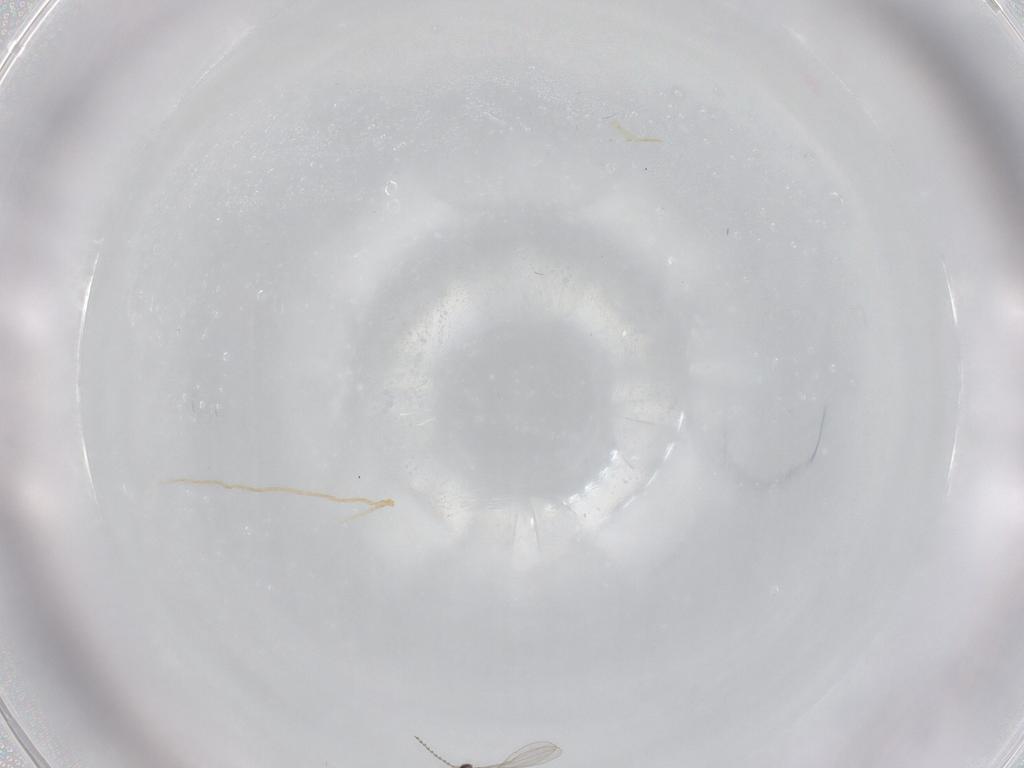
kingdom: Animalia
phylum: Arthropoda
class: Insecta
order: Diptera
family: Cecidomyiidae
